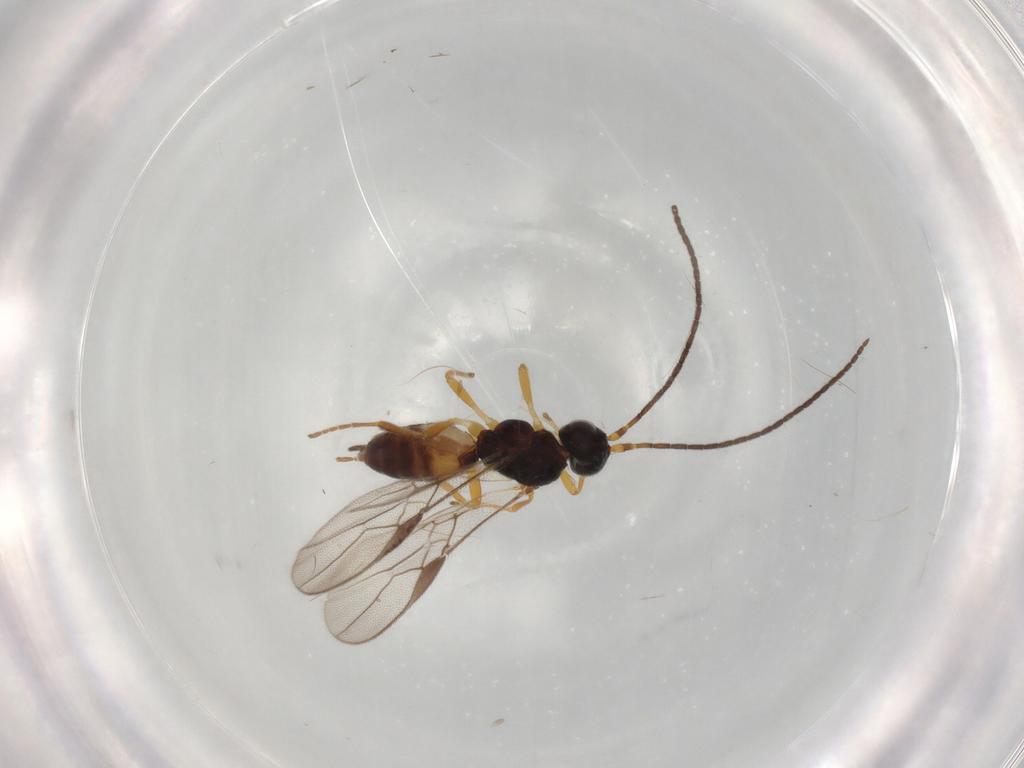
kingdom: Animalia
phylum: Arthropoda
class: Insecta
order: Hymenoptera
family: Braconidae
